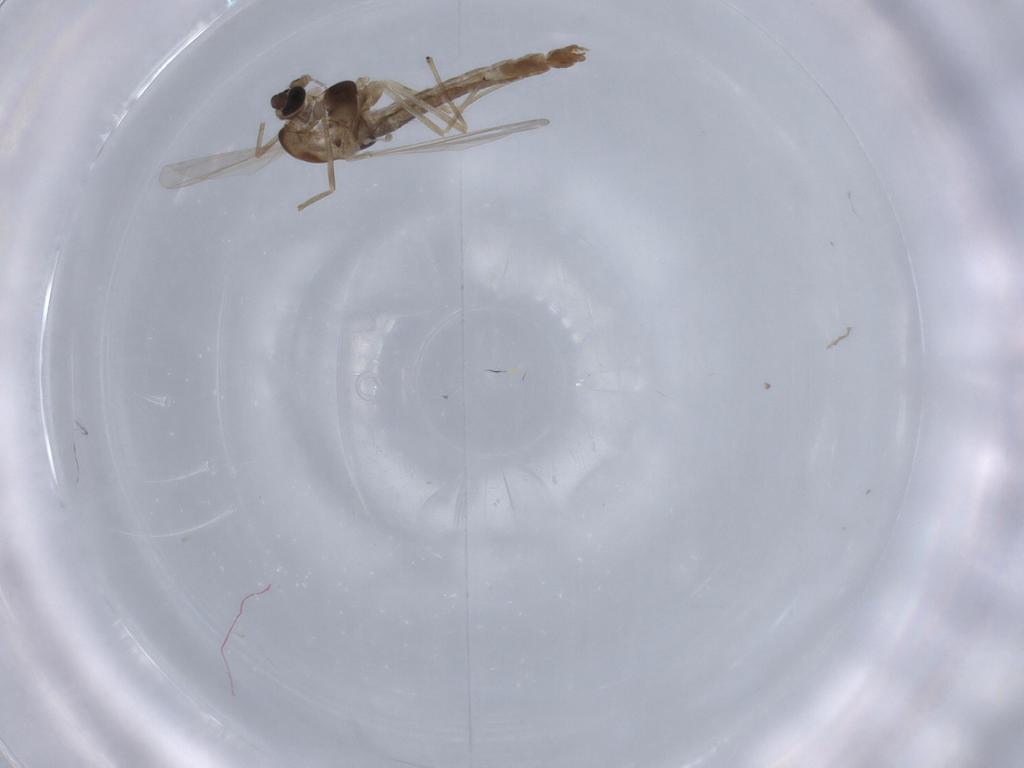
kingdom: Animalia
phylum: Arthropoda
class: Insecta
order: Diptera
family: Chironomidae
